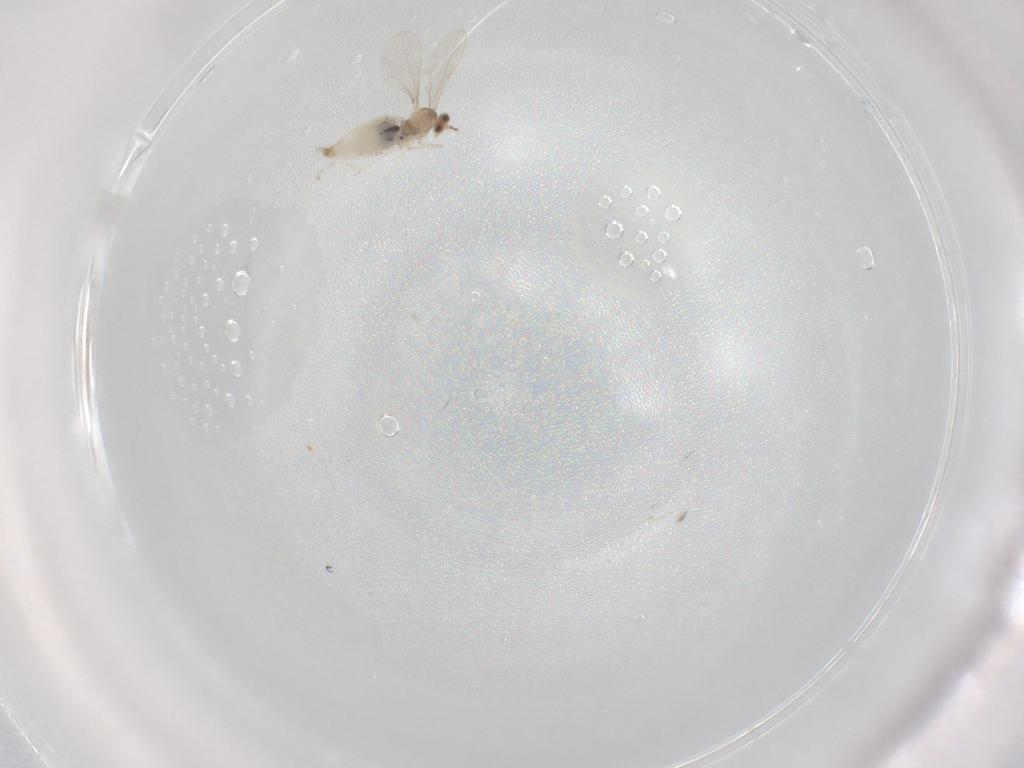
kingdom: Animalia
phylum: Arthropoda
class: Insecta
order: Diptera
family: Cecidomyiidae
